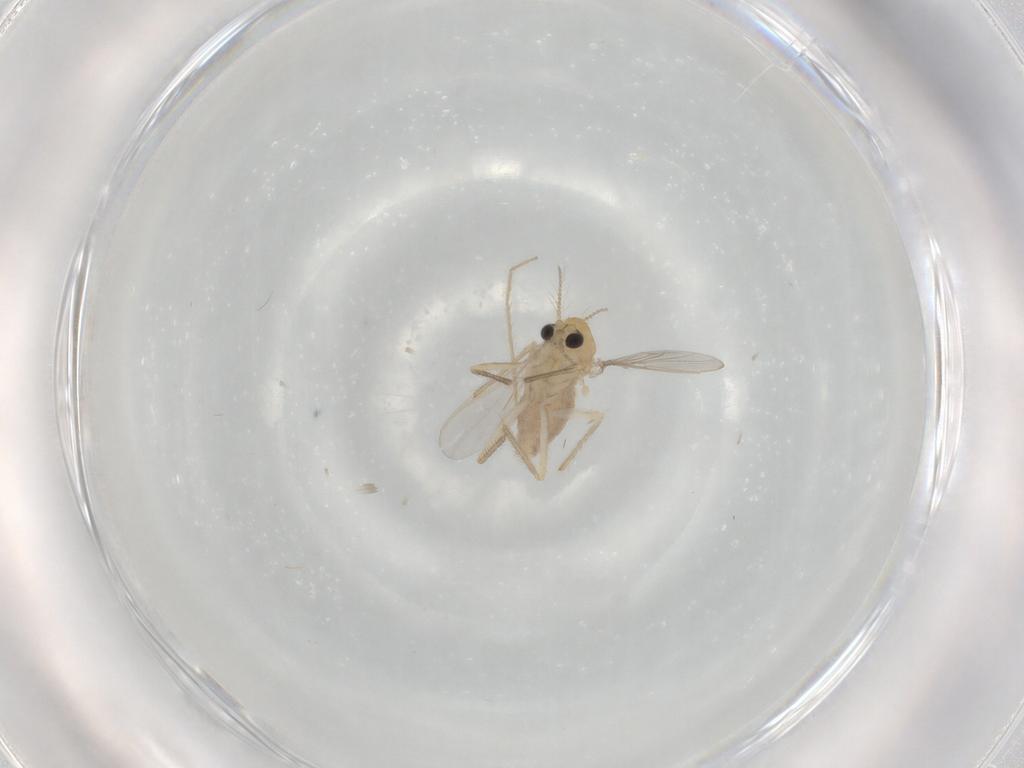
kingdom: Animalia
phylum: Arthropoda
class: Insecta
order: Diptera
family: Chironomidae
